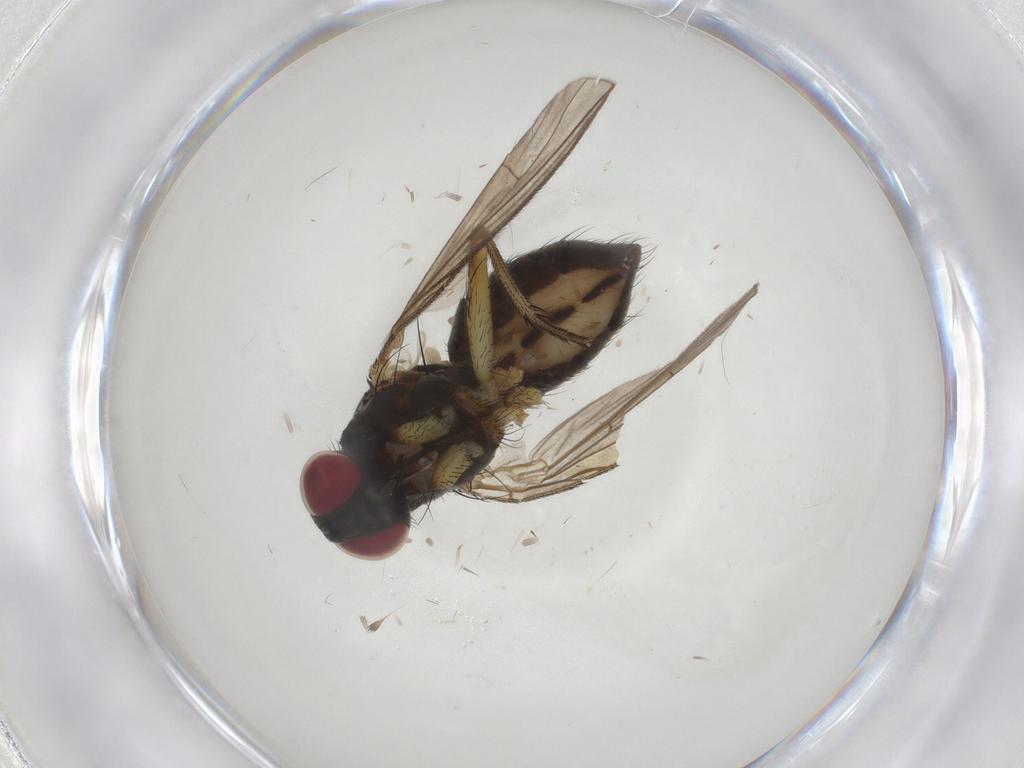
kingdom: Animalia
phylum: Arthropoda
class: Insecta
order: Diptera
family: Muscidae
